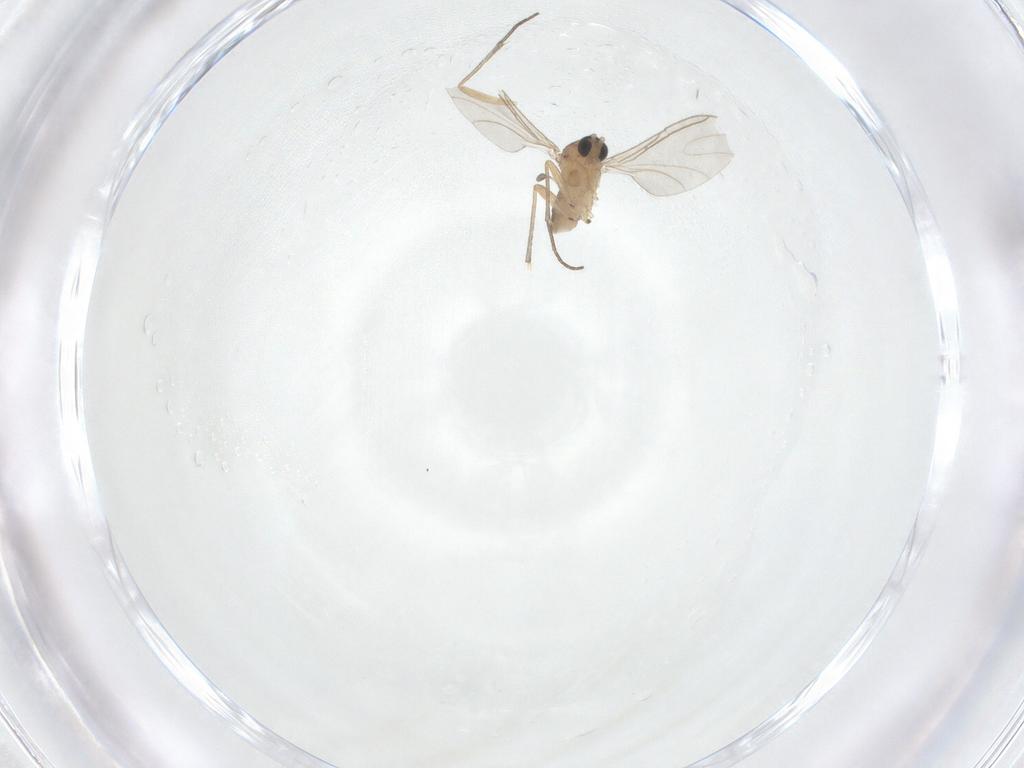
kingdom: Animalia
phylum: Arthropoda
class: Insecta
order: Diptera
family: Sciaridae
